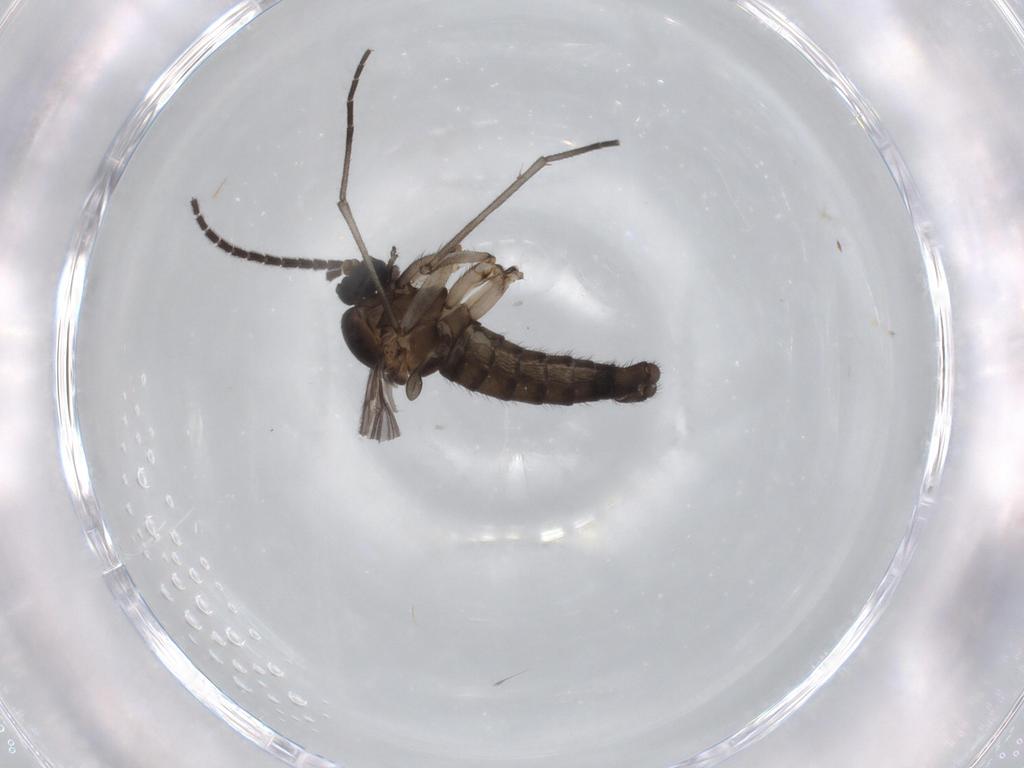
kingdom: Animalia
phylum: Arthropoda
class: Insecta
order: Diptera
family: Sciaridae
